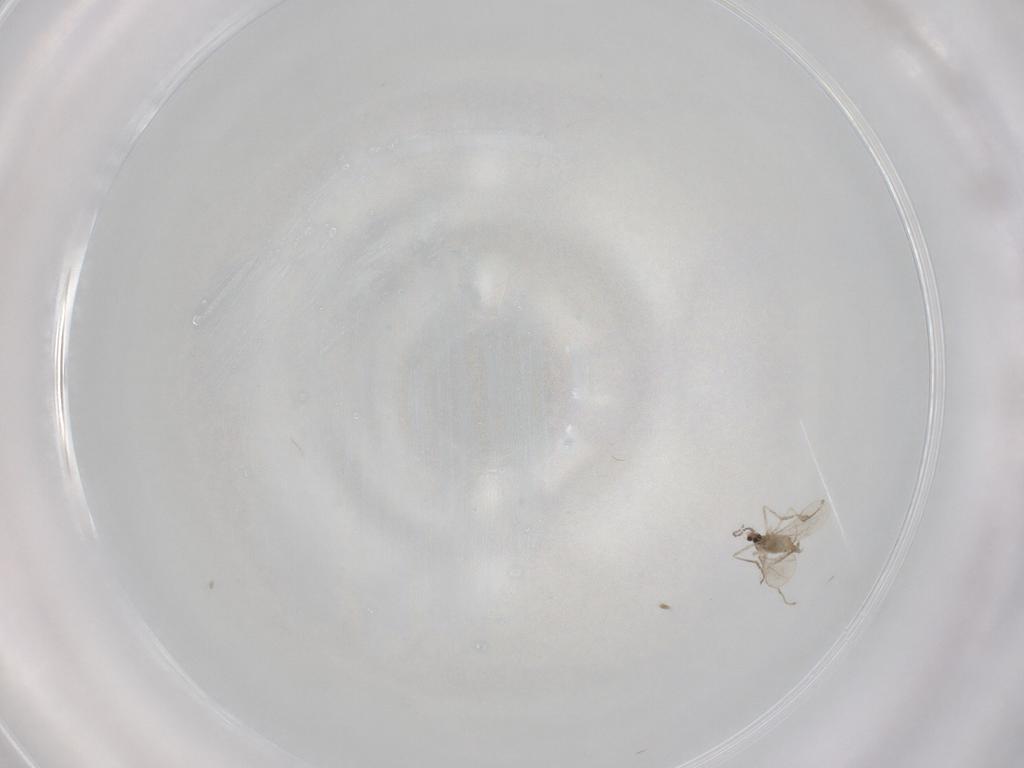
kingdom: Animalia
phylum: Arthropoda
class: Insecta
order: Diptera
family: Cecidomyiidae
